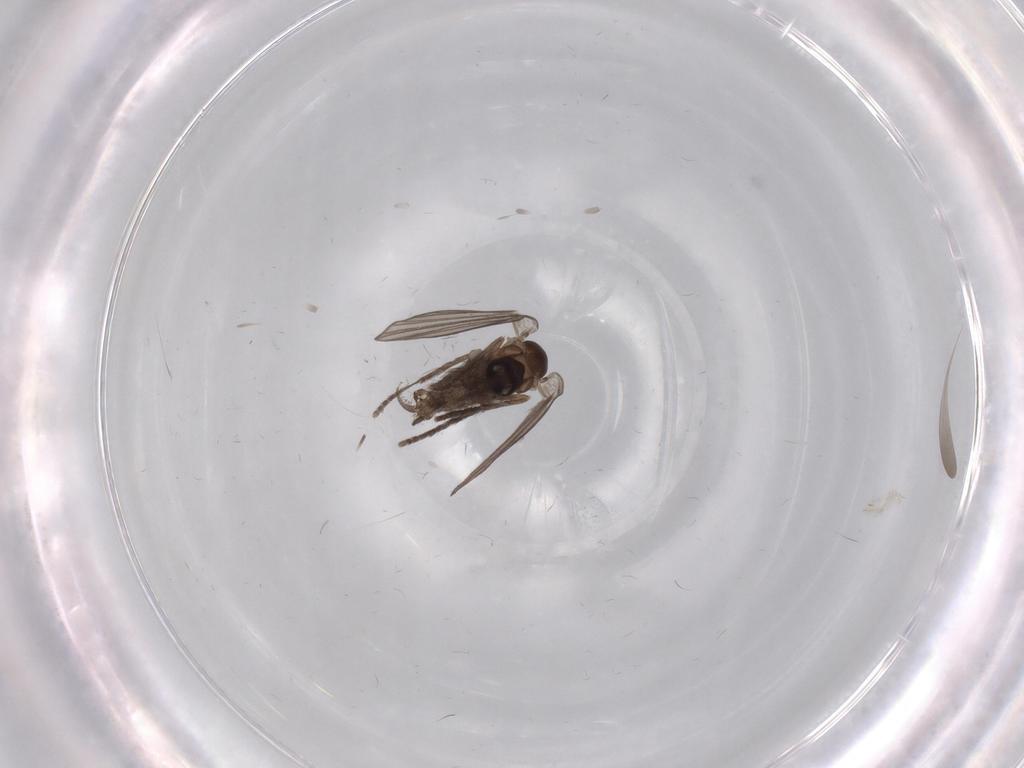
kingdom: Animalia
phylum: Arthropoda
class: Insecta
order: Diptera
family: Psychodidae
